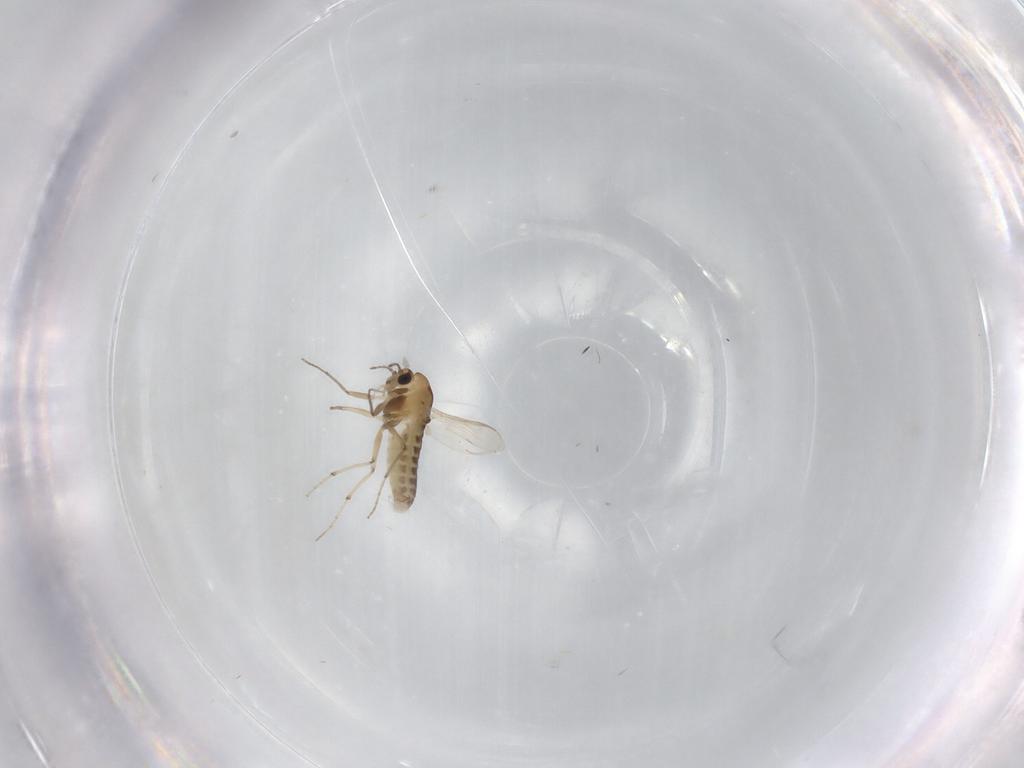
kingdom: Animalia
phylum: Arthropoda
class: Insecta
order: Diptera
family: Chironomidae
